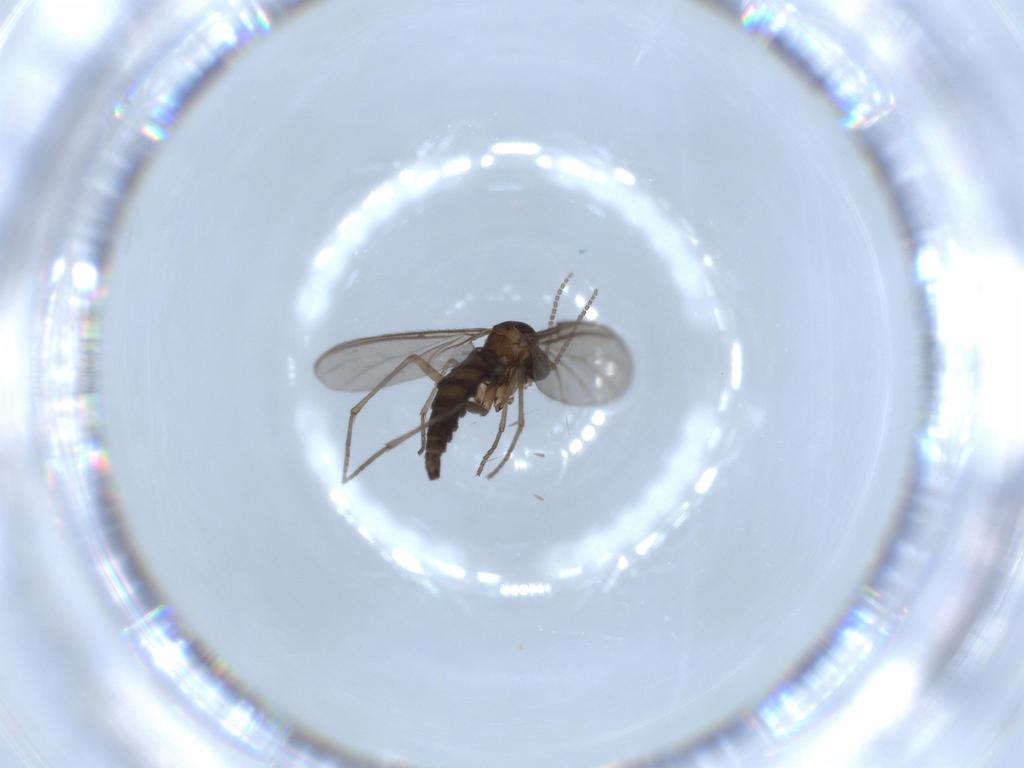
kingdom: Animalia
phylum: Arthropoda
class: Insecta
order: Diptera
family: Sciaridae
